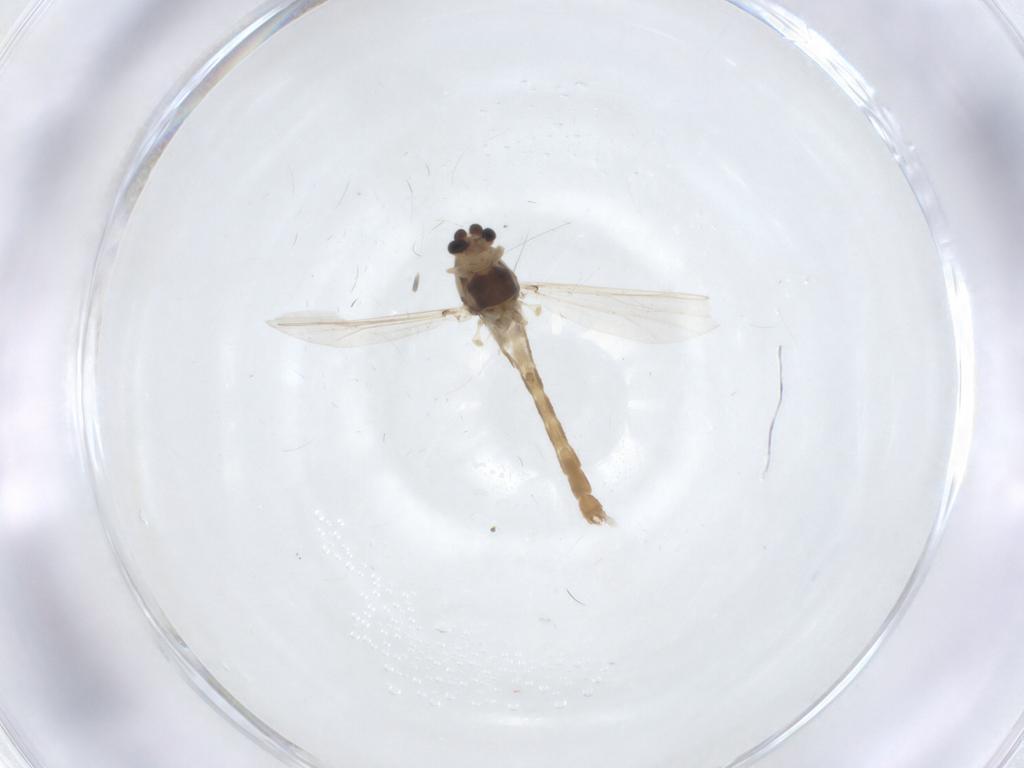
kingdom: Animalia
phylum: Arthropoda
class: Insecta
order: Diptera
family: Chironomidae
